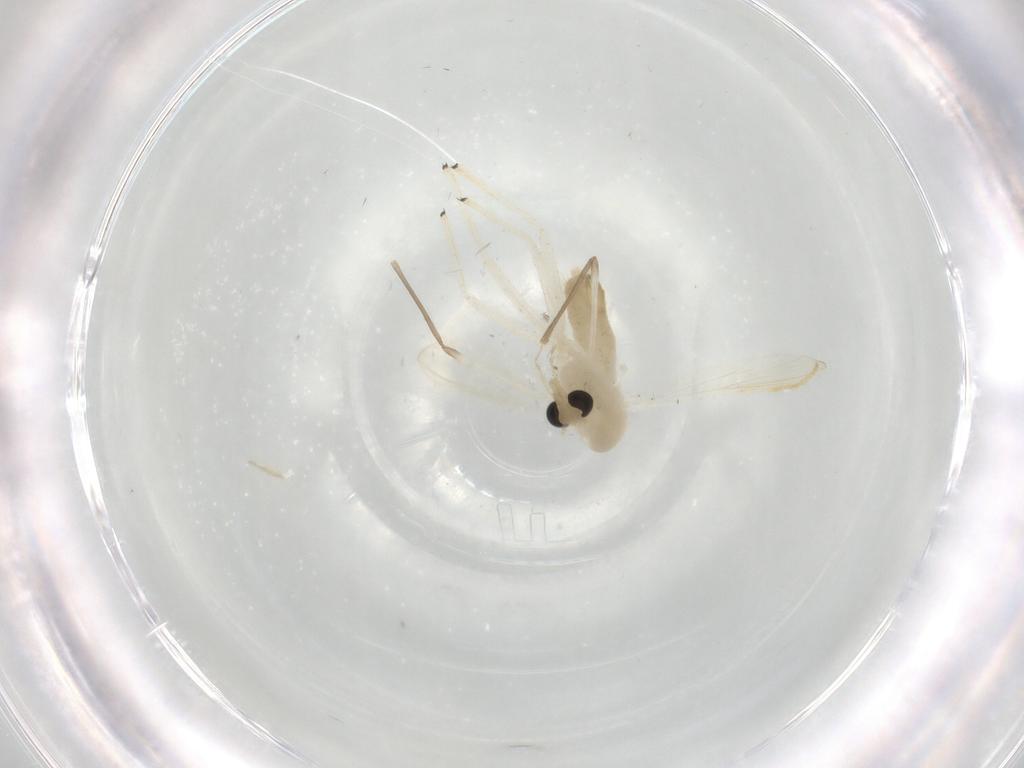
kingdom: Animalia
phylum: Arthropoda
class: Insecta
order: Diptera
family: Chironomidae
